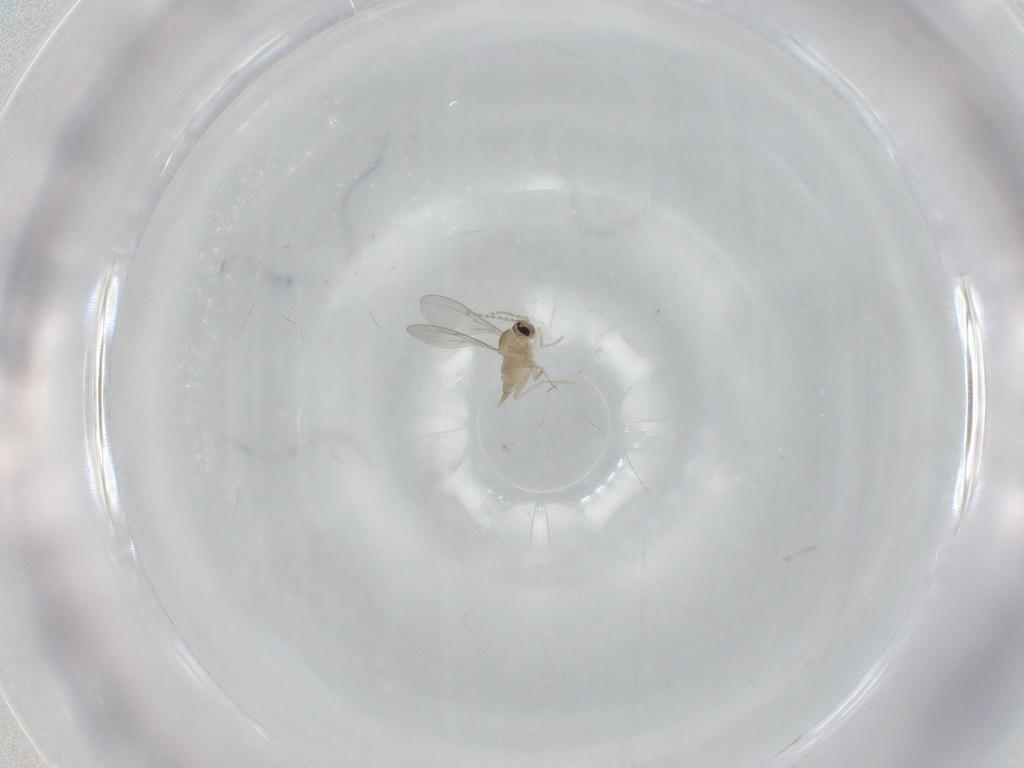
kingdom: Animalia
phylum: Arthropoda
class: Insecta
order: Diptera
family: Cecidomyiidae
